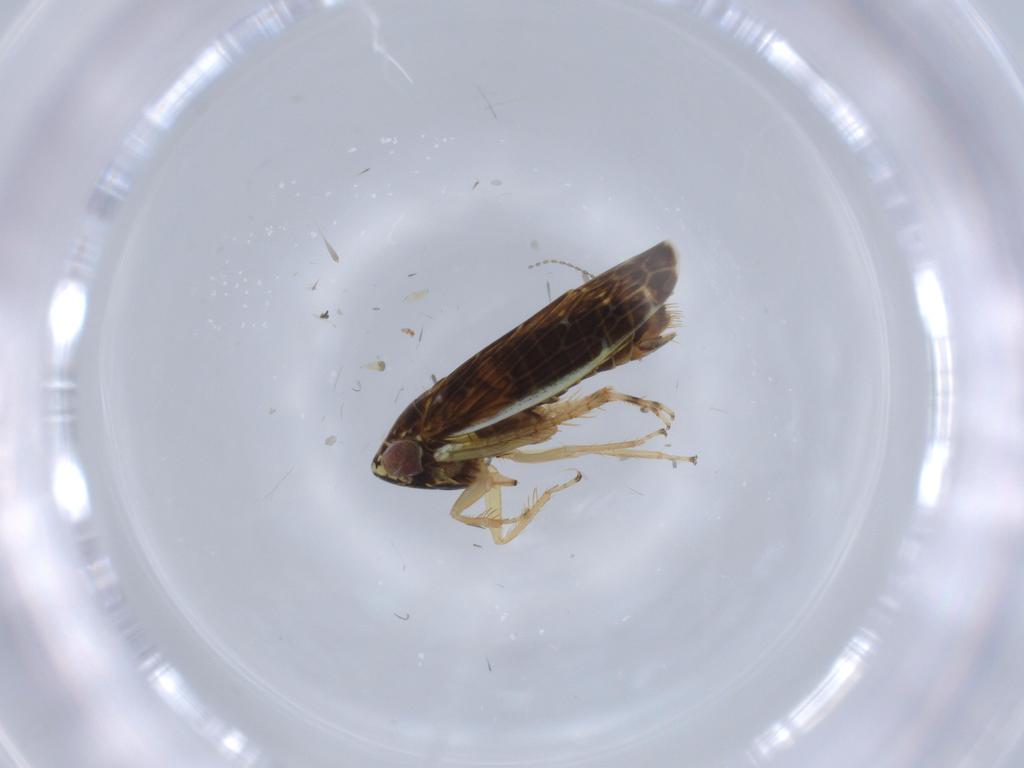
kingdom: Animalia
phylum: Arthropoda
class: Insecta
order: Hemiptera
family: Cicadellidae
